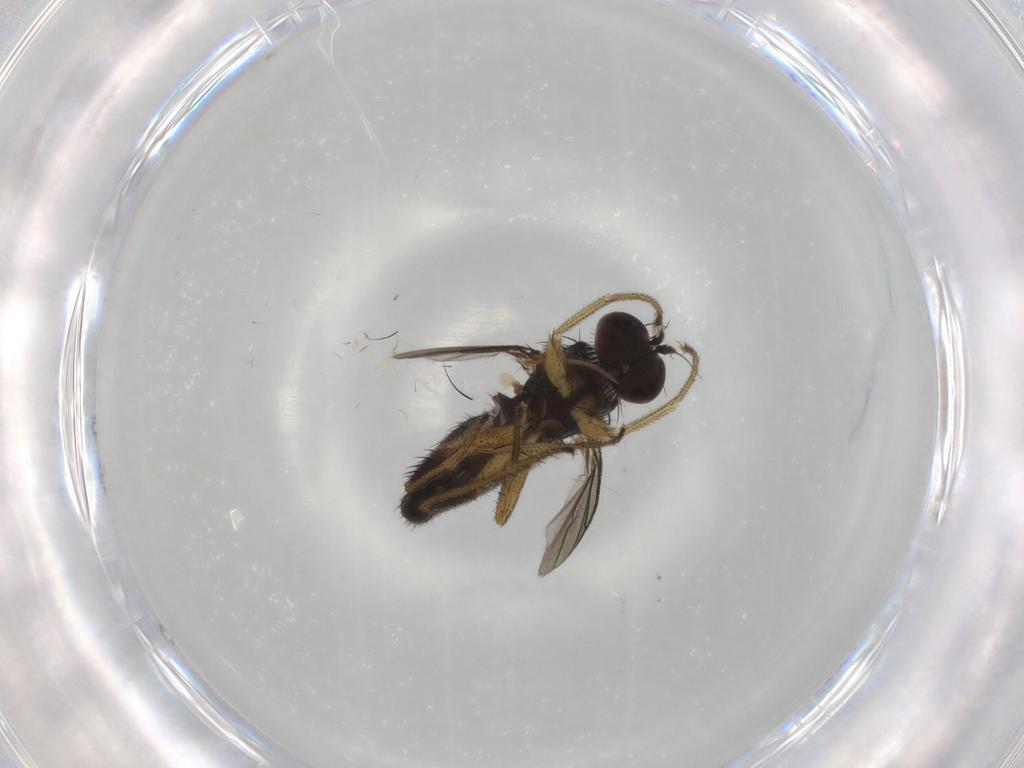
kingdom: Animalia
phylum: Arthropoda
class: Insecta
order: Diptera
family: Dolichopodidae
